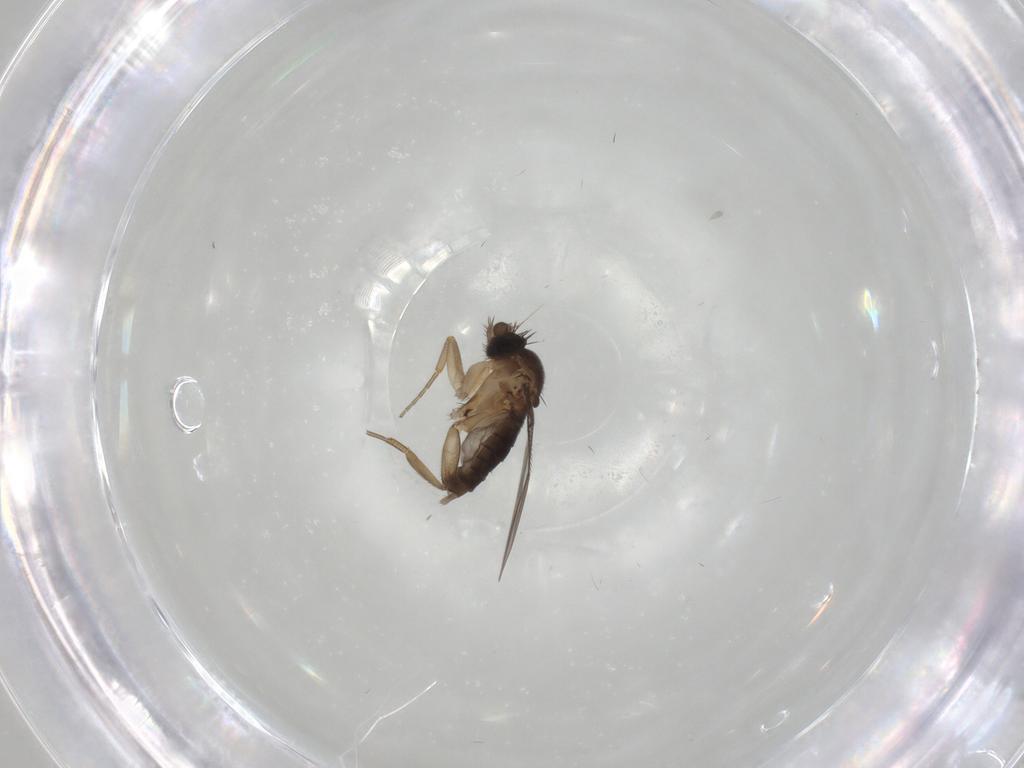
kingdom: Animalia
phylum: Arthropoda
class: Insecta
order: Diptera
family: Phoridae
